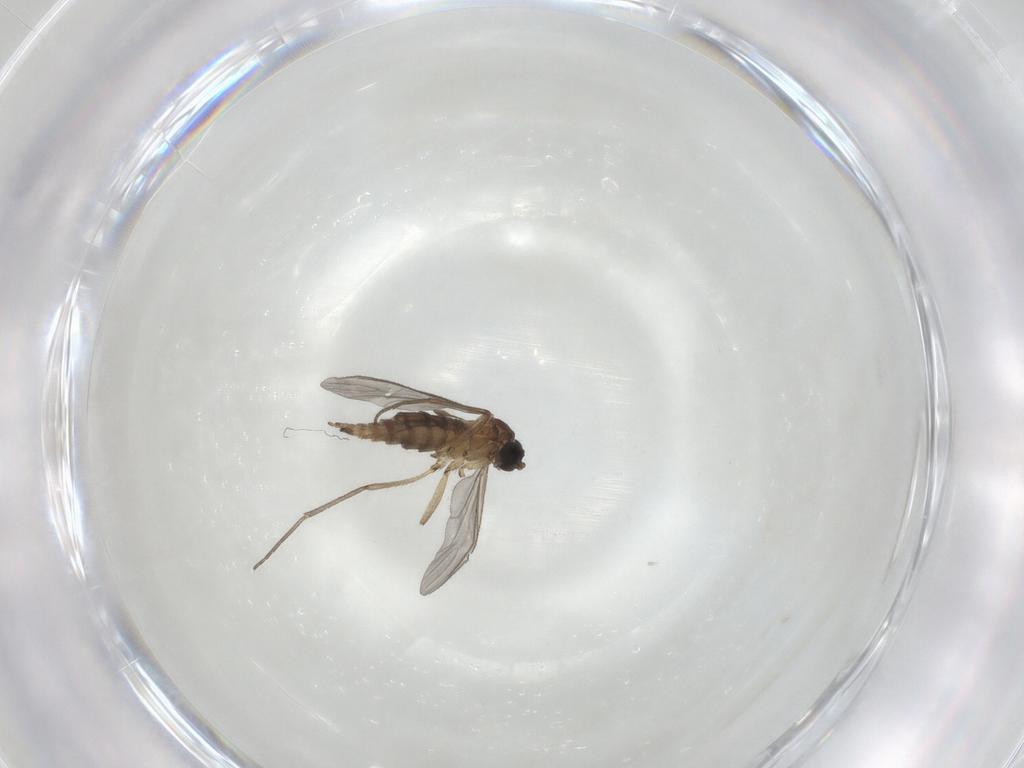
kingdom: Animalia
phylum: Arthropoda
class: Insecta
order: Diptera
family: Sciaridae
